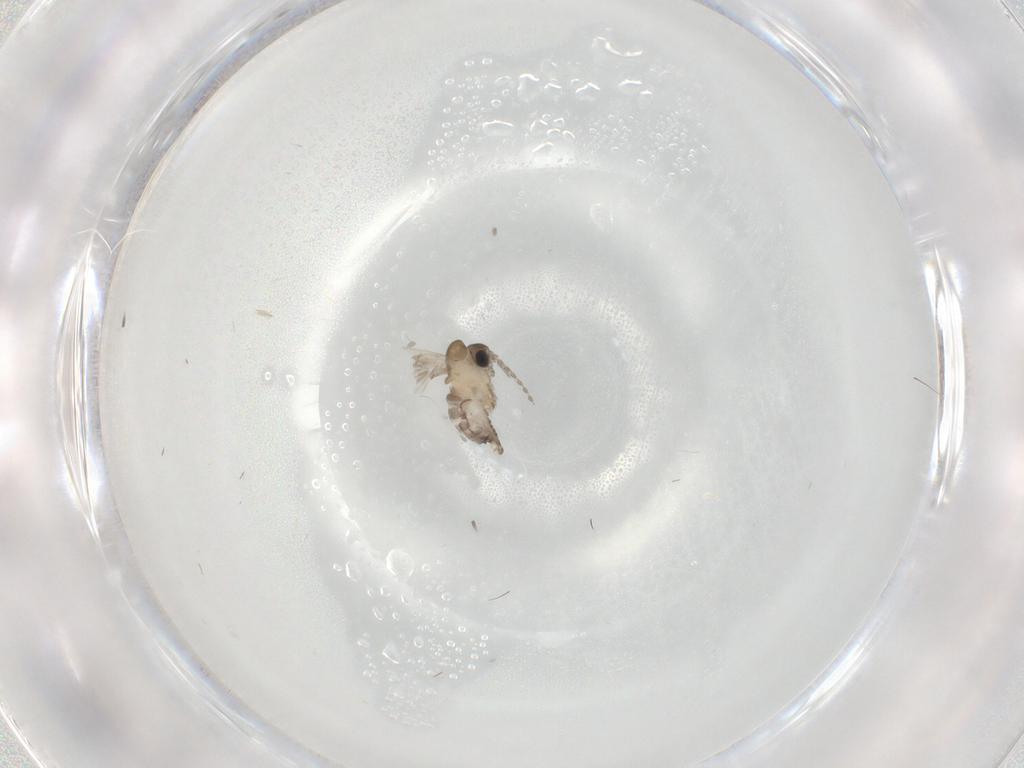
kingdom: Animalia
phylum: Arthropoda
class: Insecta
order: Diptera
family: Psychodidae
